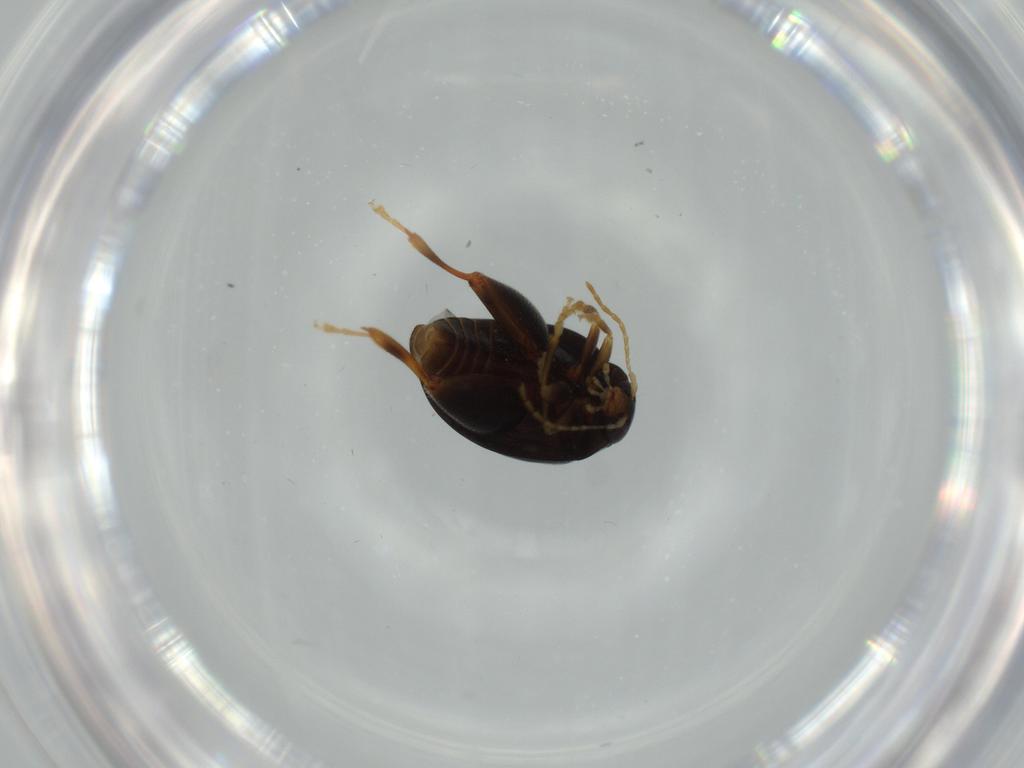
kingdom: Animalia
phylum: Arthropoda
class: Insecta
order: Coleoptera
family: Chrysomelidae
